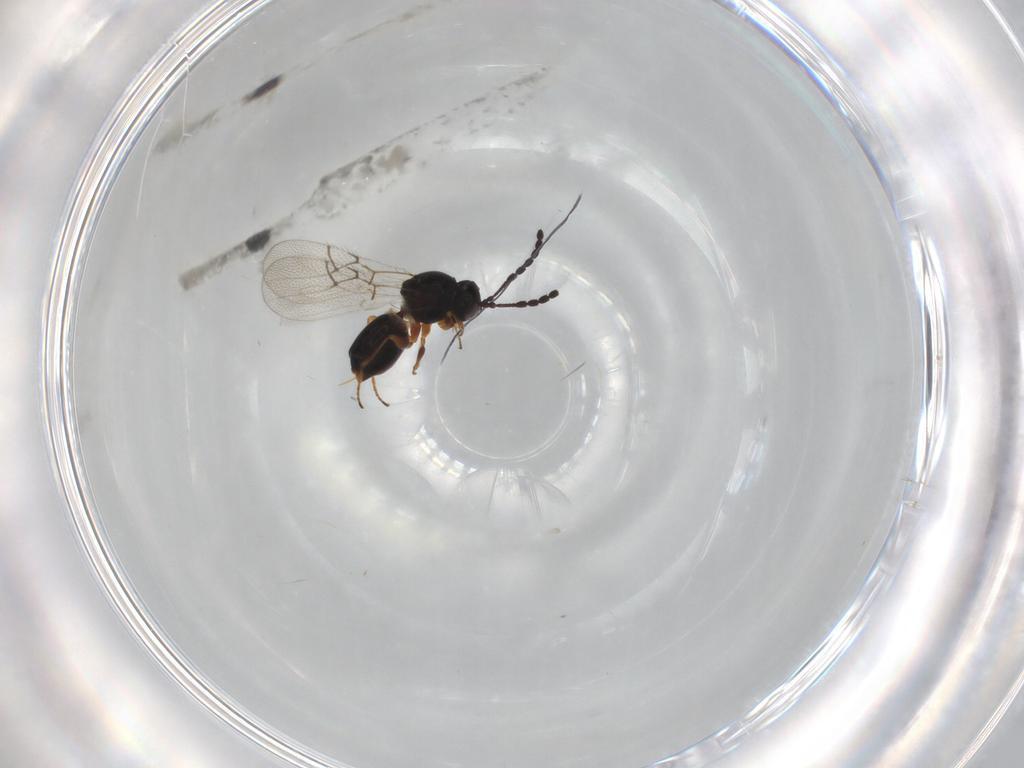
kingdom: Animalia
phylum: Arthropoda
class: Insecta
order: Hymenoptera
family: Figitidae
